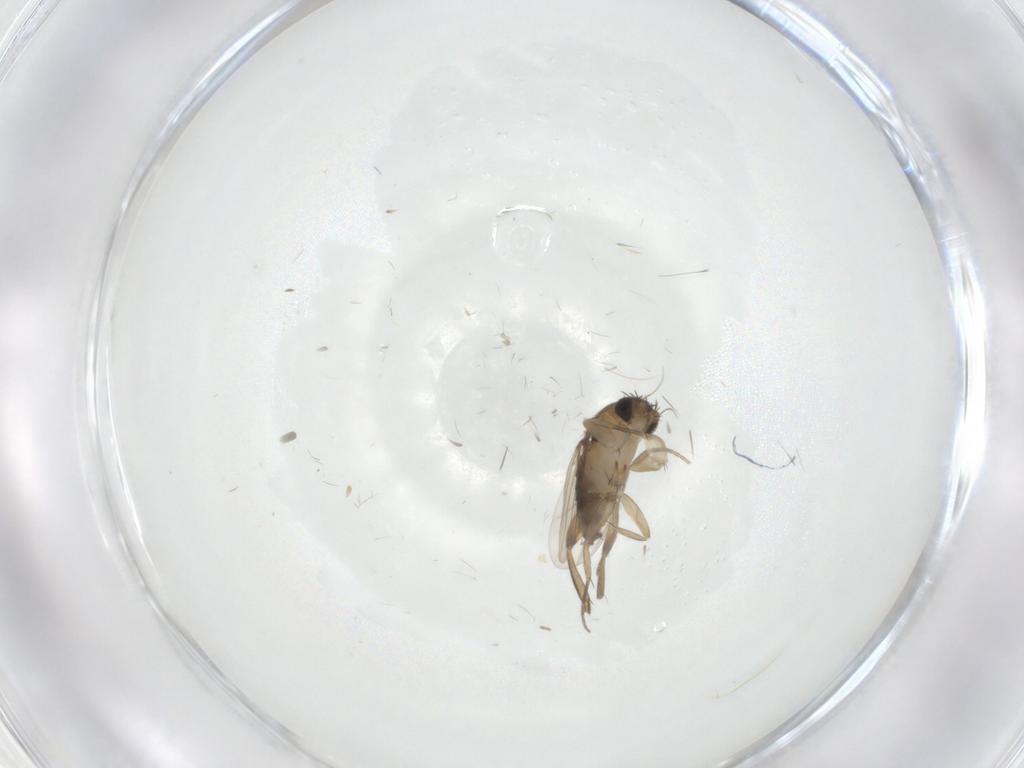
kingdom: Animalia
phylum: Arthropoda
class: Insecta
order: Diptera
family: Phoridae
